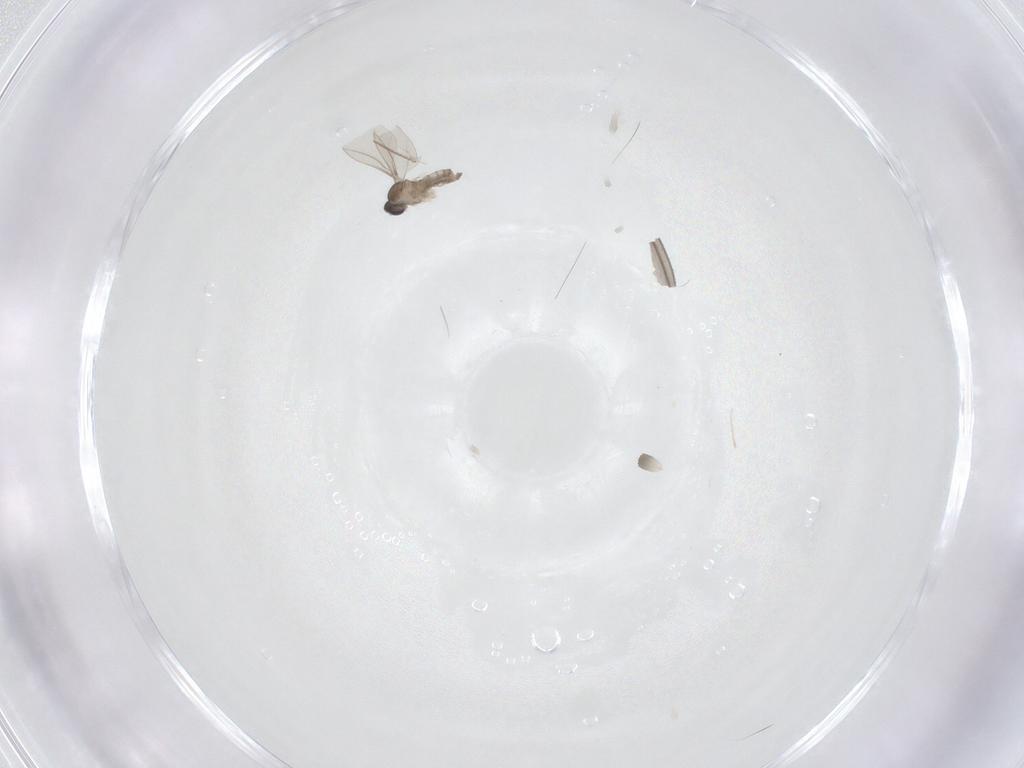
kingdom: Animalia
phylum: Arthropoda
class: Insecta
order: Diptera
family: Cecidomyiidae
